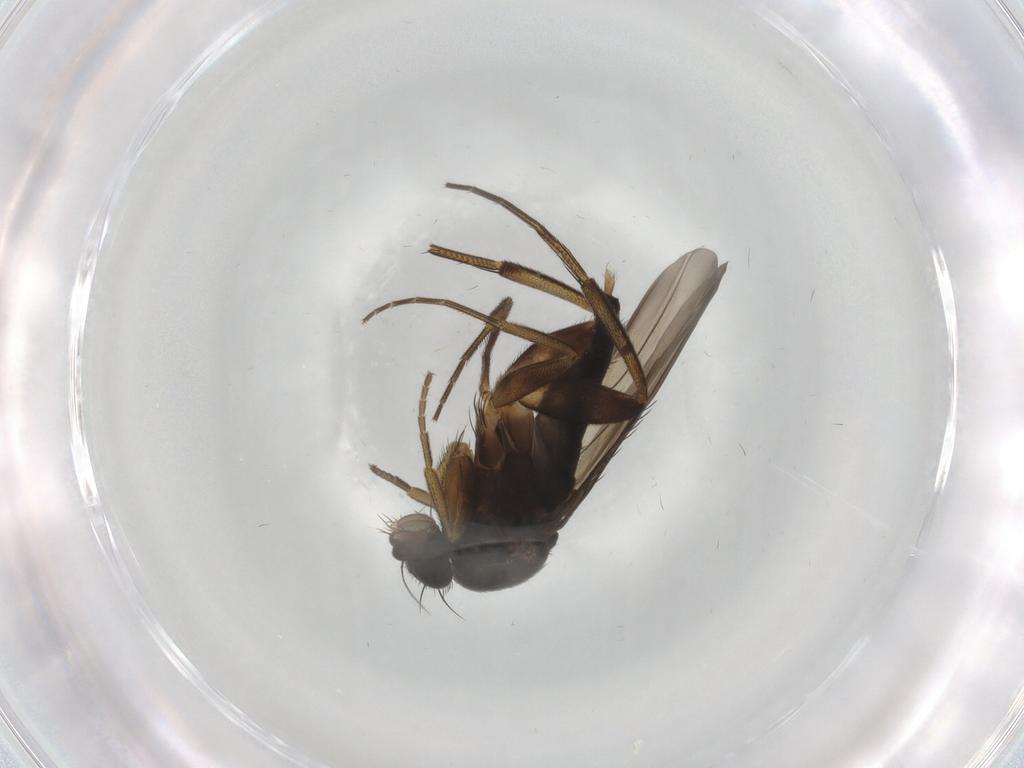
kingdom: Animalia
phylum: Arthropoda
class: Insecta
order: Diptera
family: Phoridae
